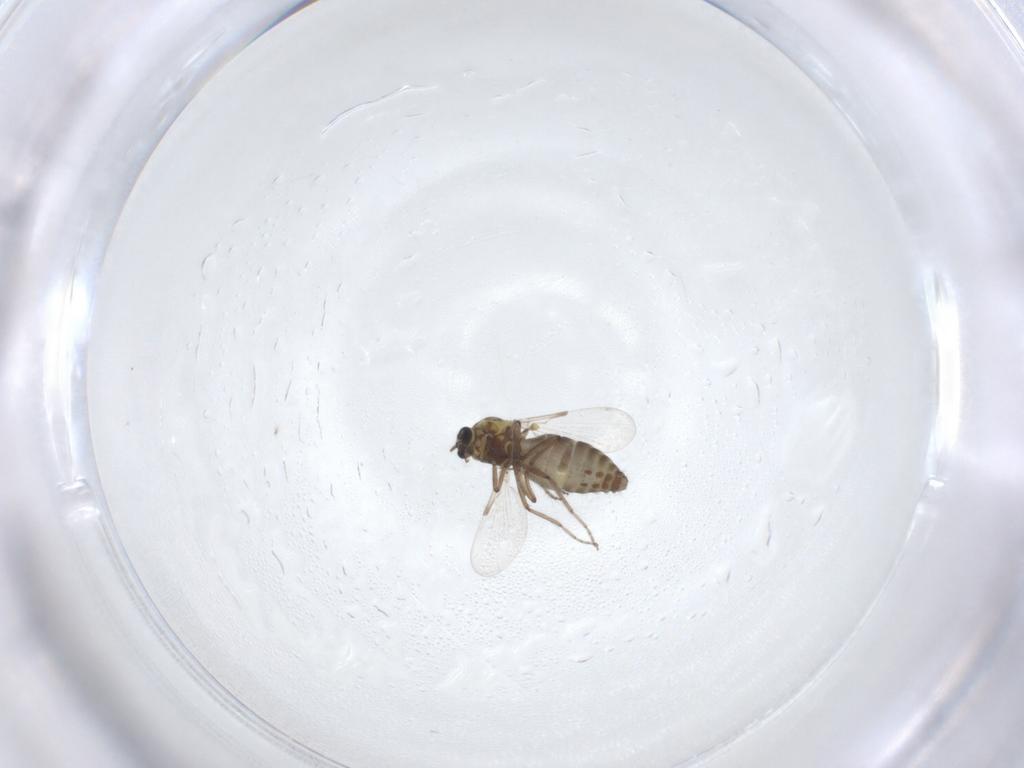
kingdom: Animalia
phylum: Arthropoda
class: Insecta
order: Diptera
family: Ceratopogonidae
